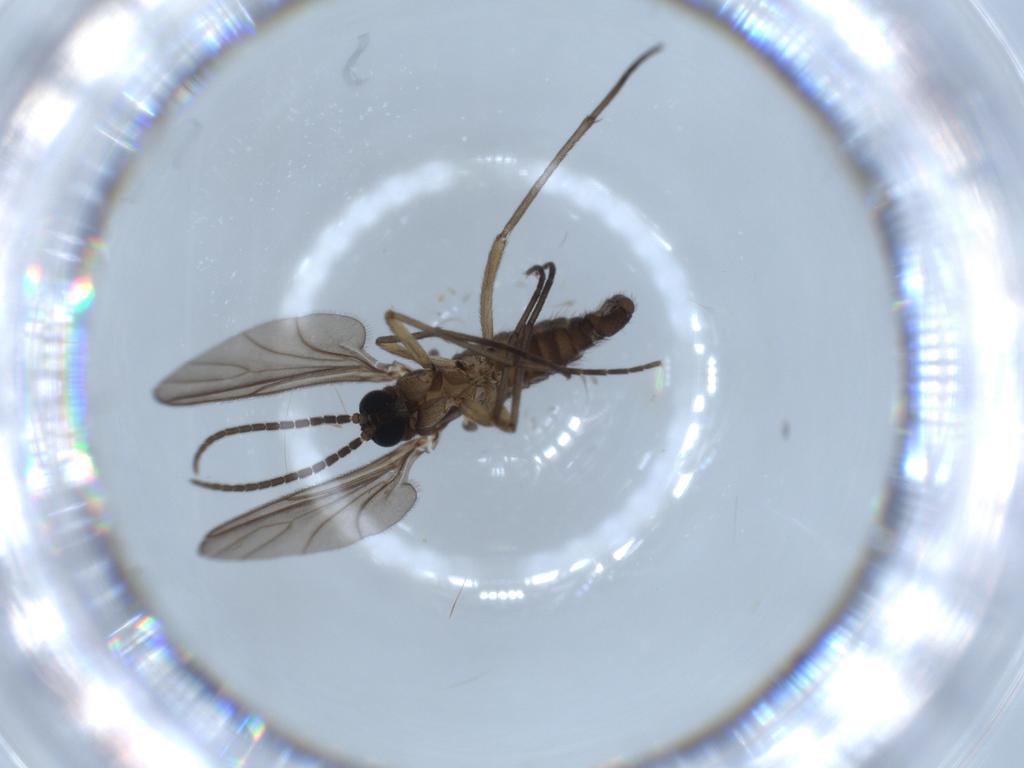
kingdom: Animalia
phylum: Arthropoda
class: Insecta
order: Diptera
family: Sciaridae
